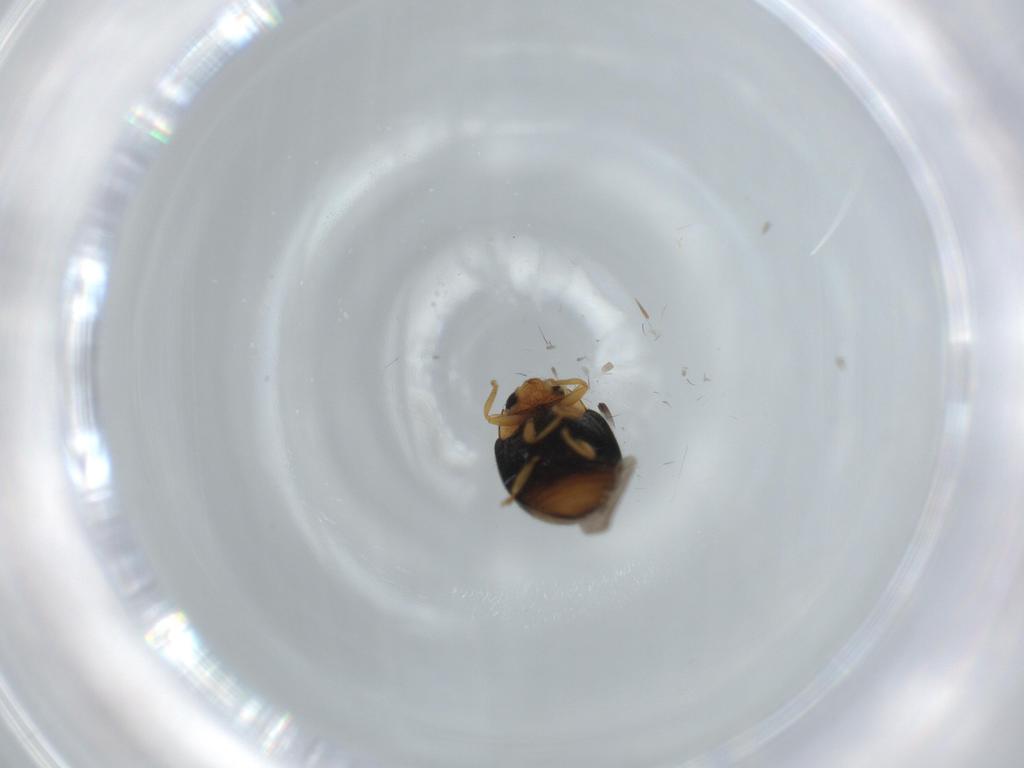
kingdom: Animalia
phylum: Arthropoda
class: Insecta
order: Coleoptera
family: Coccinellidae
